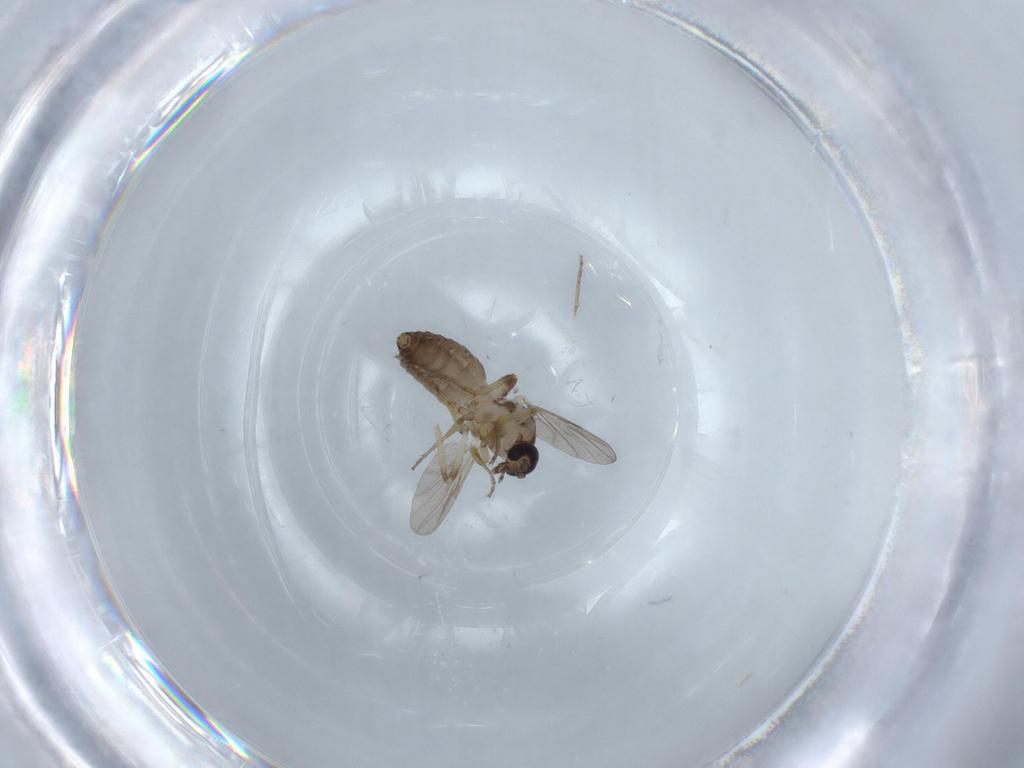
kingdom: Animalia
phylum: Arthropoda
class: Insecta
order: Diptera
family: Ceratopogonidae
